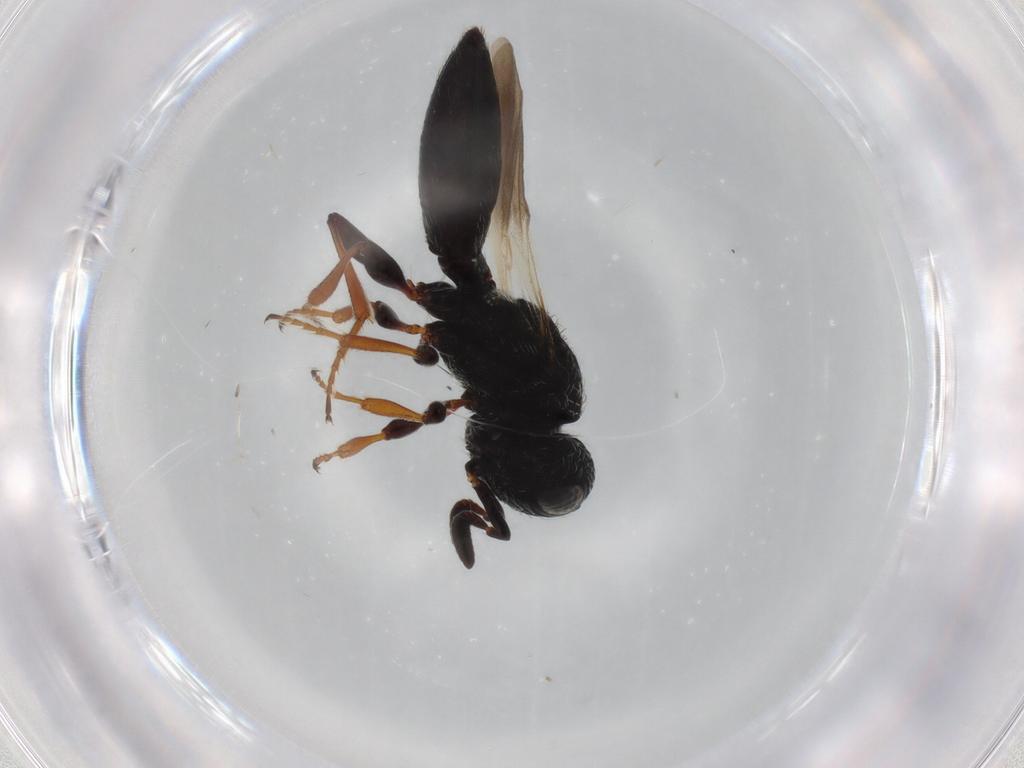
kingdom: Animalia
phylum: Arthropoda
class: Insecta
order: Hymenoptera
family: Scelionidae
